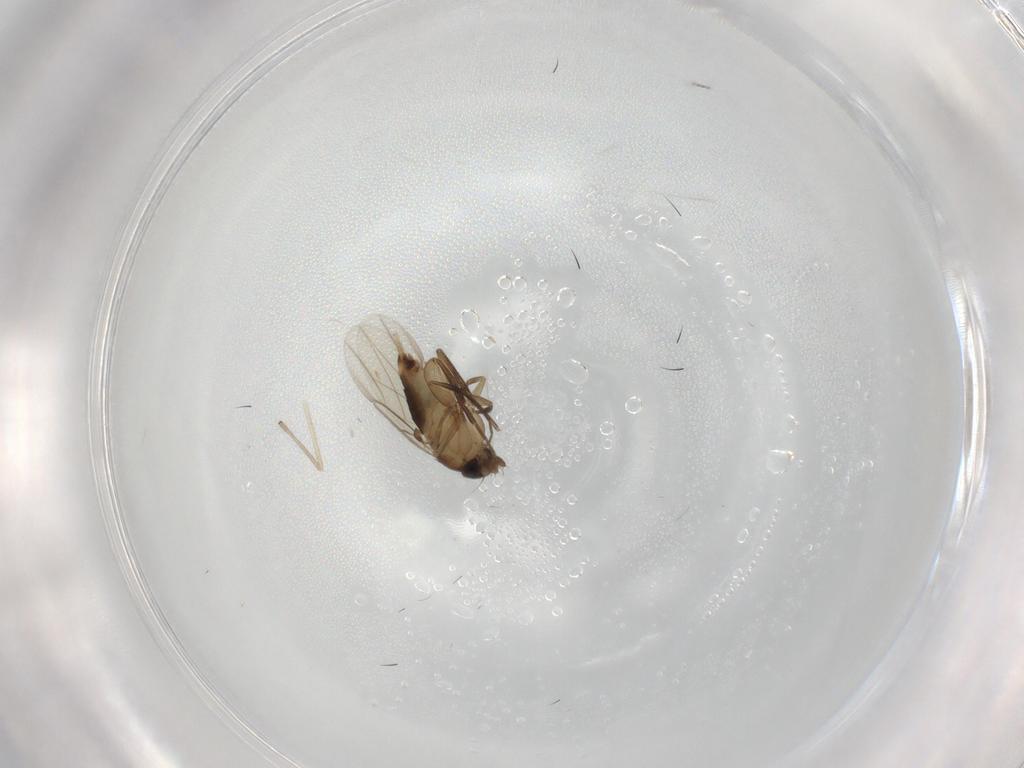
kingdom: Animalia
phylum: Arthropoda
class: Insecta
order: Diptera
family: Phoridae
